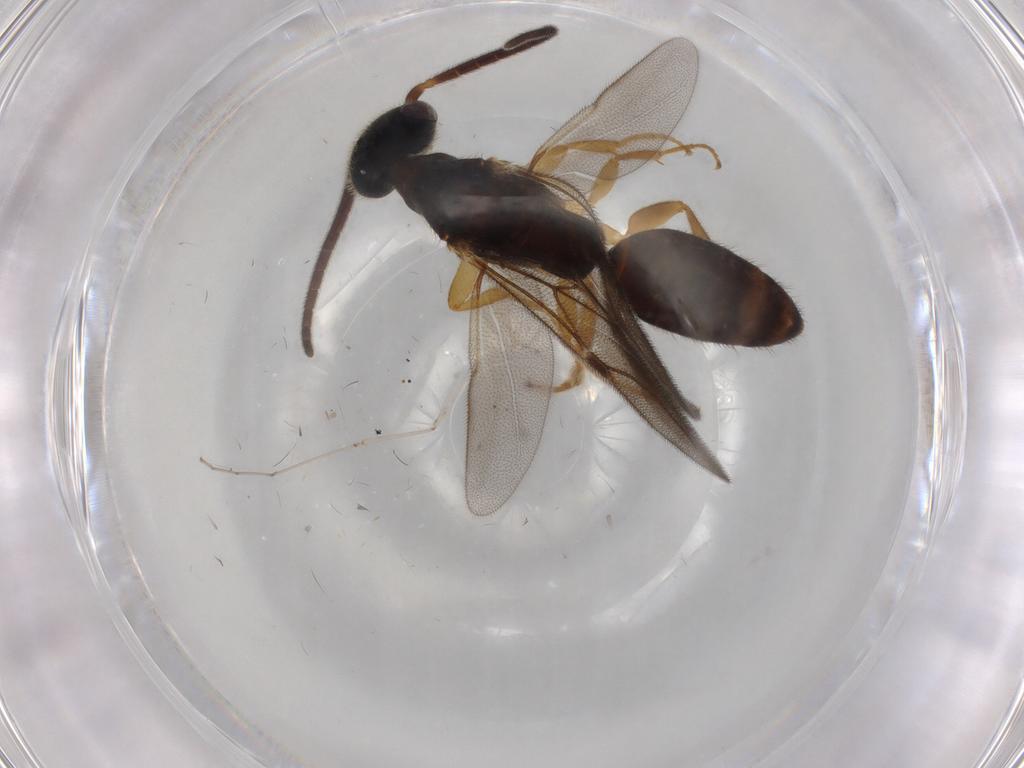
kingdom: Animalia
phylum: Arthropoda
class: Insecta
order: Hymenoptera
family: Bethylidae
